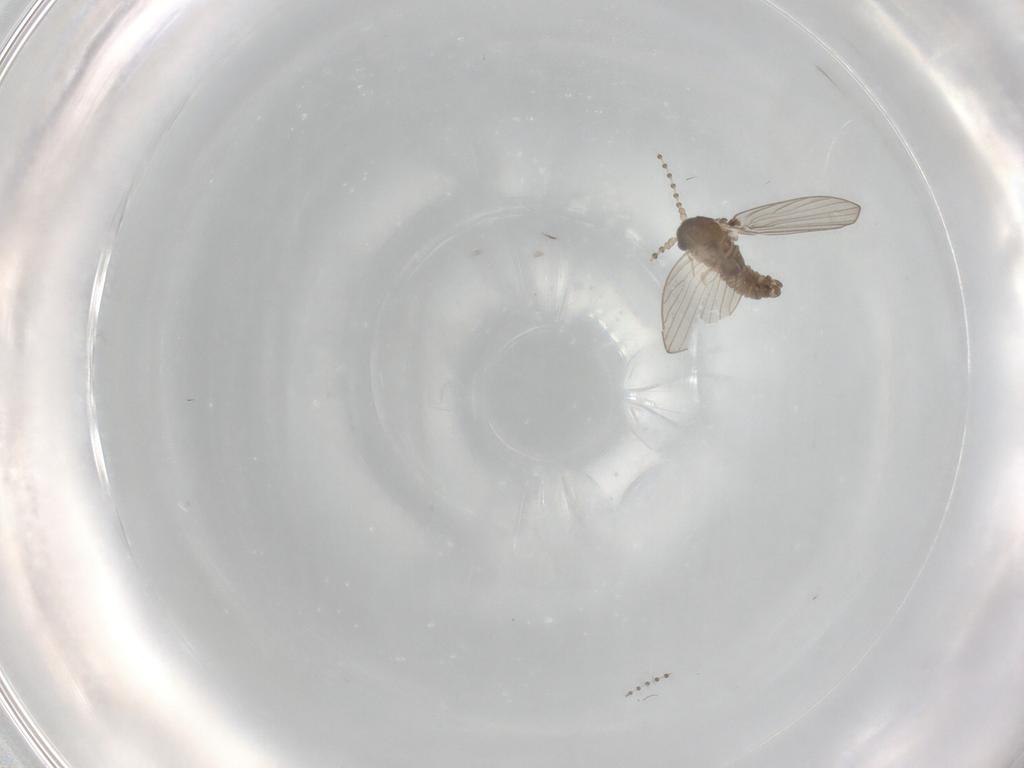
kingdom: Animalia
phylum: Arthropoda
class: Insecta
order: Diptera
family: Psychodidae
